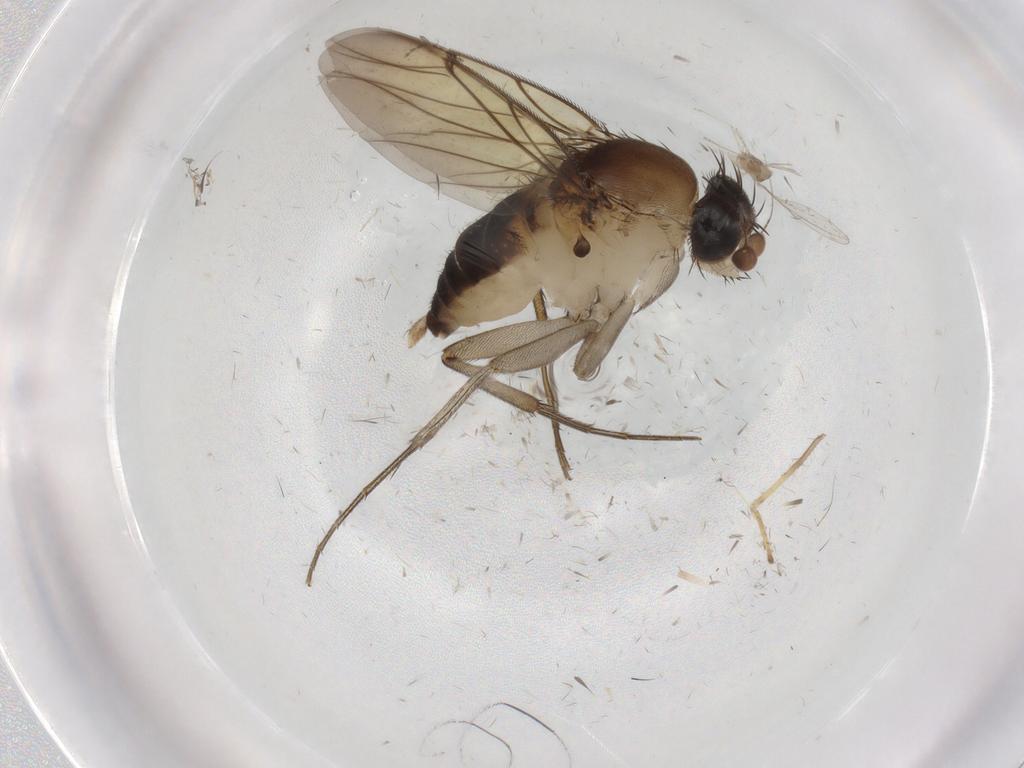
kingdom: Animalia
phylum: Arthropoda
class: Insecta
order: Diptera
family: Phoridae
